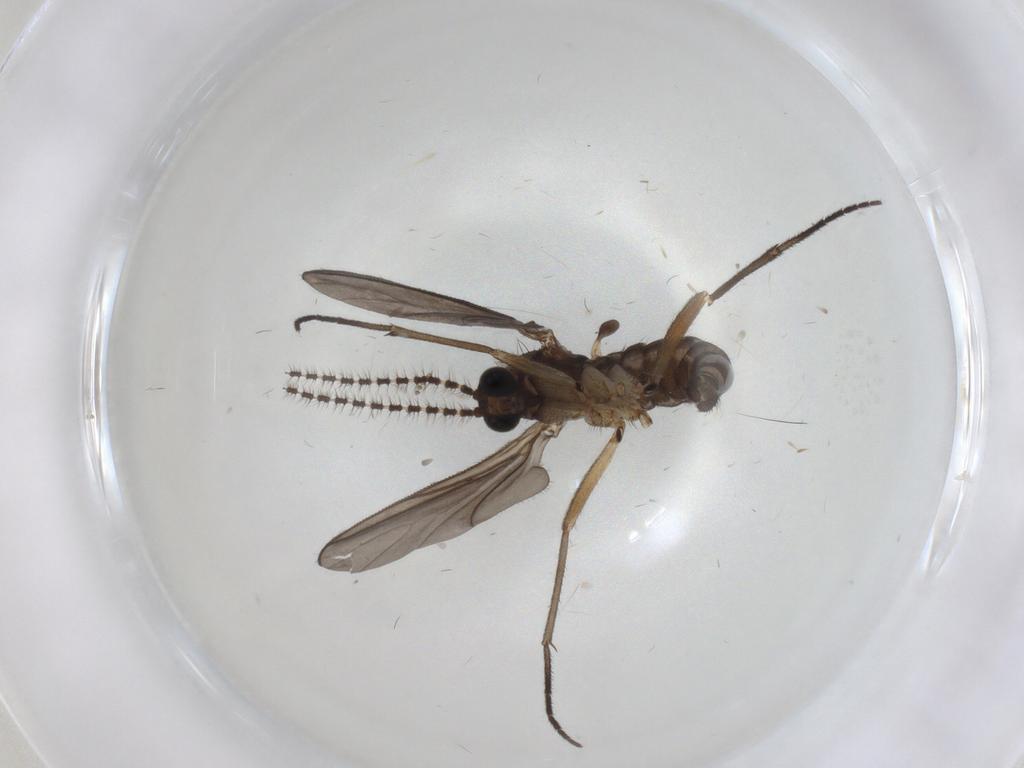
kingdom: Animalia
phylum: Arthropoda
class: Insecta
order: Diptera
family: Sciaridae
